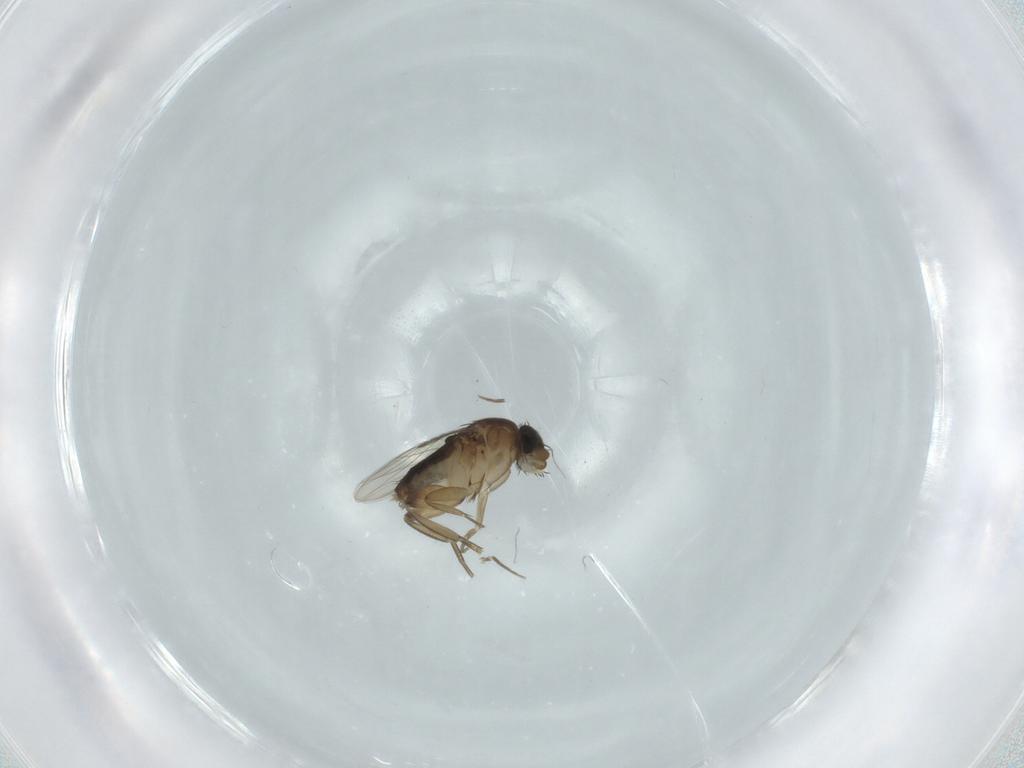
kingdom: Animalia
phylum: Arthropoda
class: Insecta
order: Diptera
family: Phoridae
